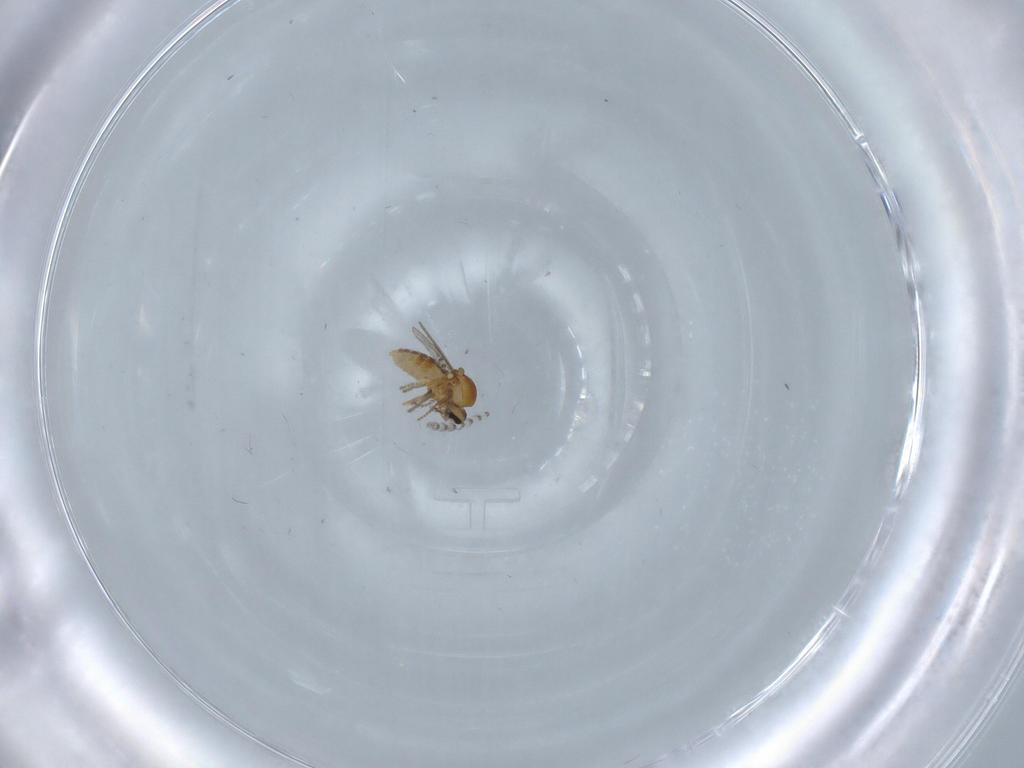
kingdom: Animalia
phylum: Arthropoda
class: Insecta
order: Diptera
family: Ceratopogonidae
